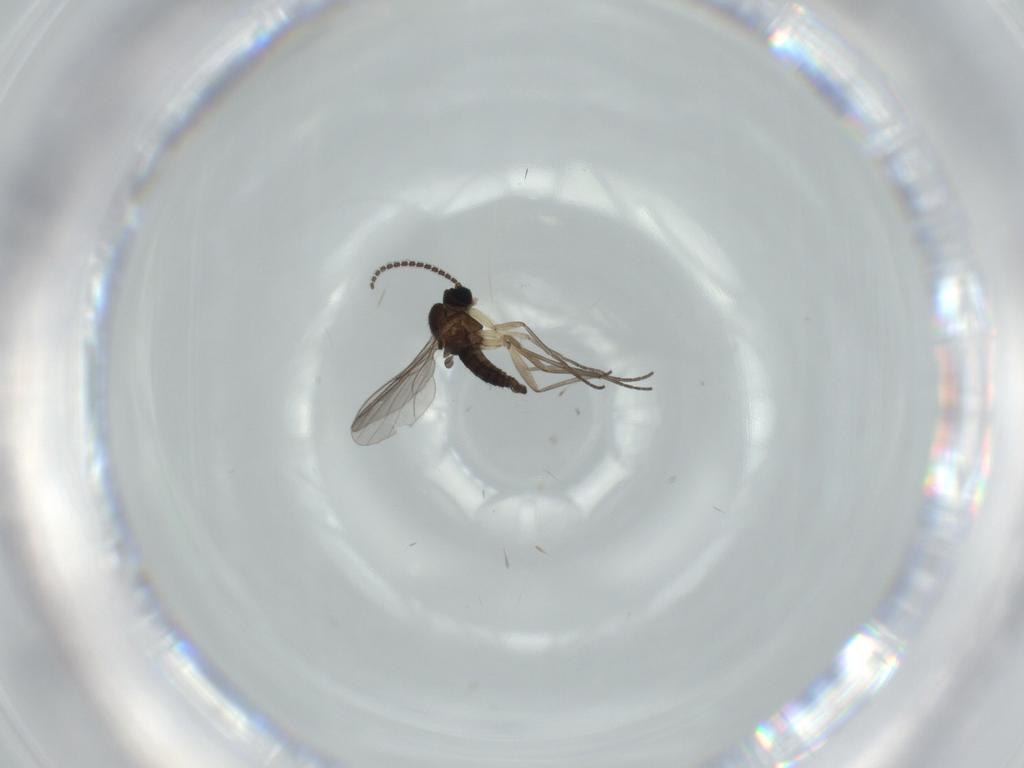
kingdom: Animalia
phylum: Arthropoda
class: Insecta
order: Diptera
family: Sciaridae
